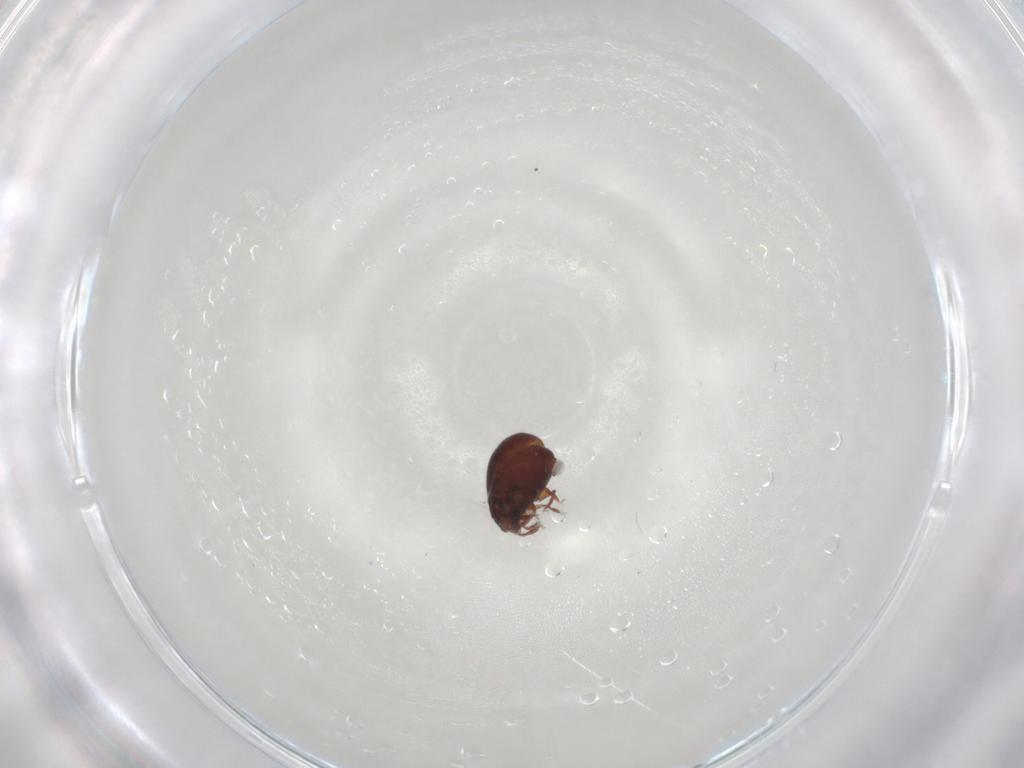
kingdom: Animalia
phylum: Arthropoda
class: Arachnida
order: Sarcoptiformes
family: Humerobatidae
